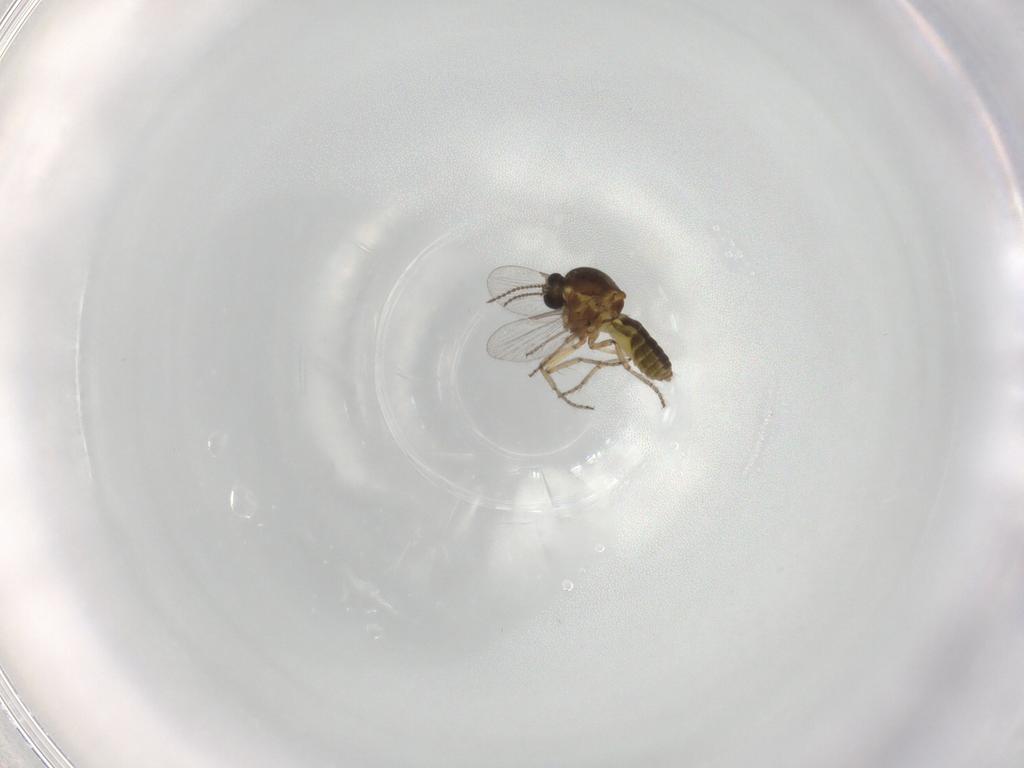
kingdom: Animalia
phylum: Arthropoda
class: Insecta
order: Diptera
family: Ceratopogonidae
